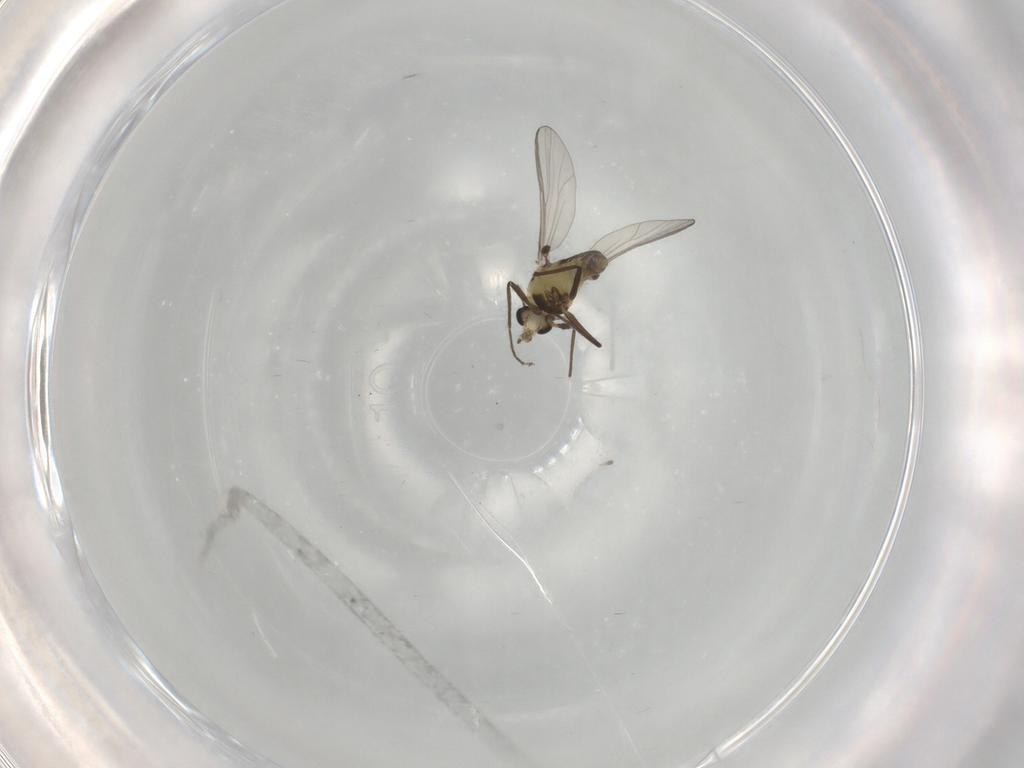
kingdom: Animalia
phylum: Arthropoda
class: Insecta
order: Diptera
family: Chironomidae
